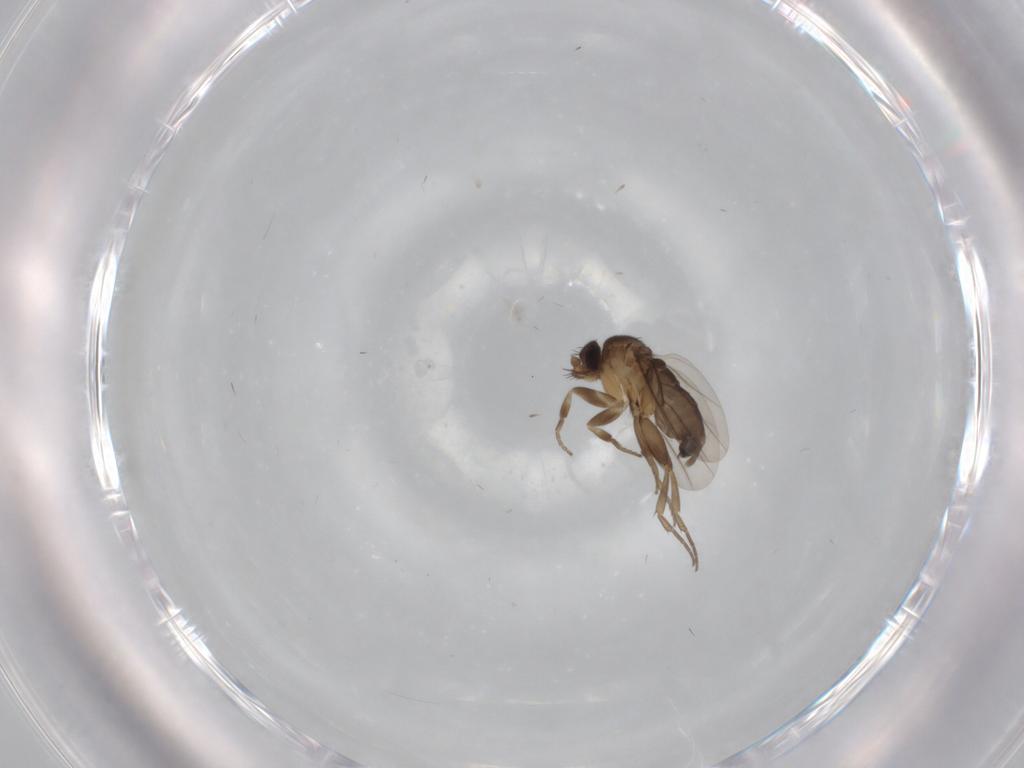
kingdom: Animalia
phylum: Arthropoda
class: Insecta
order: Diptera
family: Phoridae
